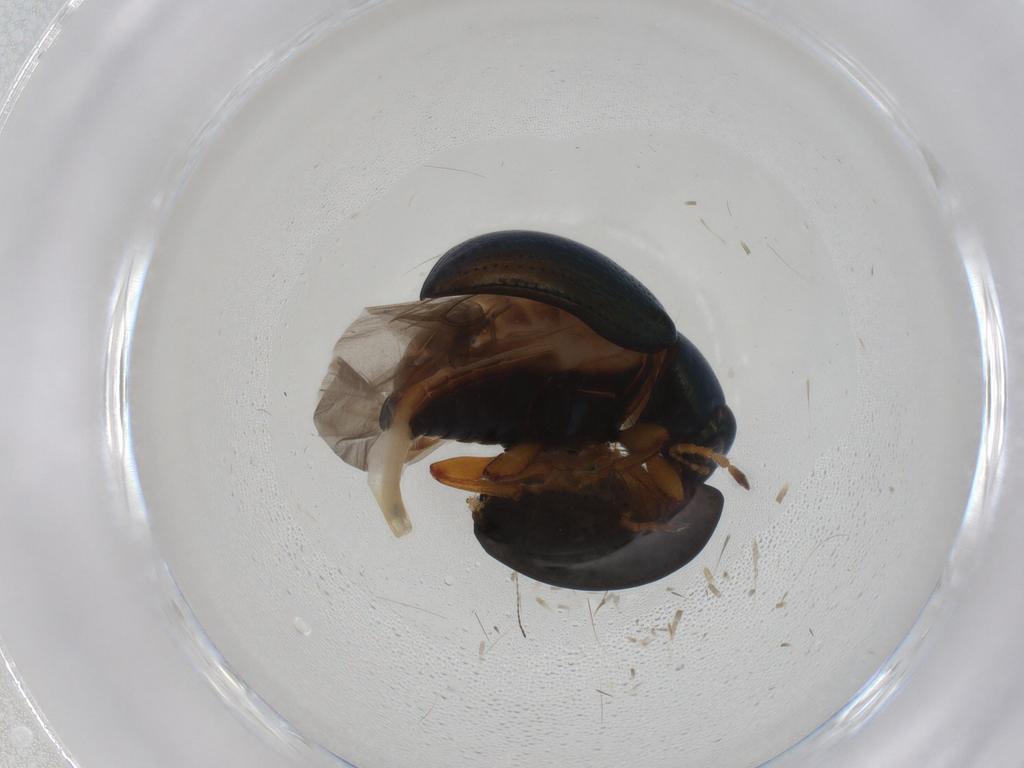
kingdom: Animalia
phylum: Arthropoda
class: Insecta
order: Coleoptera
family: Chrysomelidae
